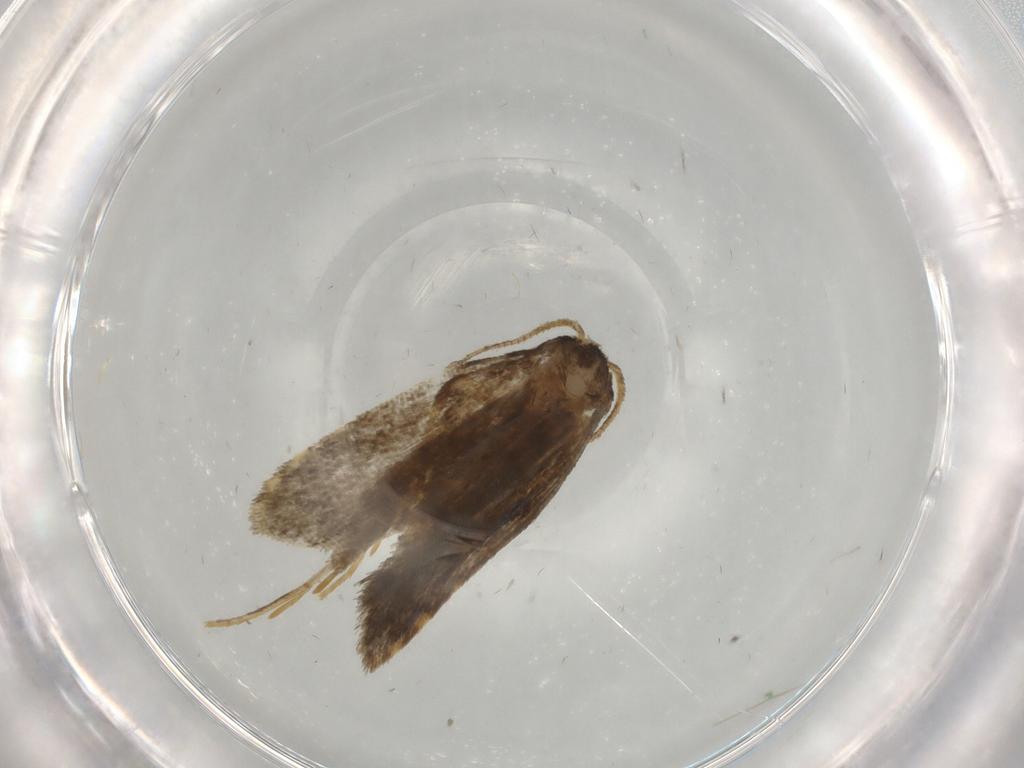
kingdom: Animalia
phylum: Arthropoda
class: Insecta
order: Lepidoptera
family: Psychidae
